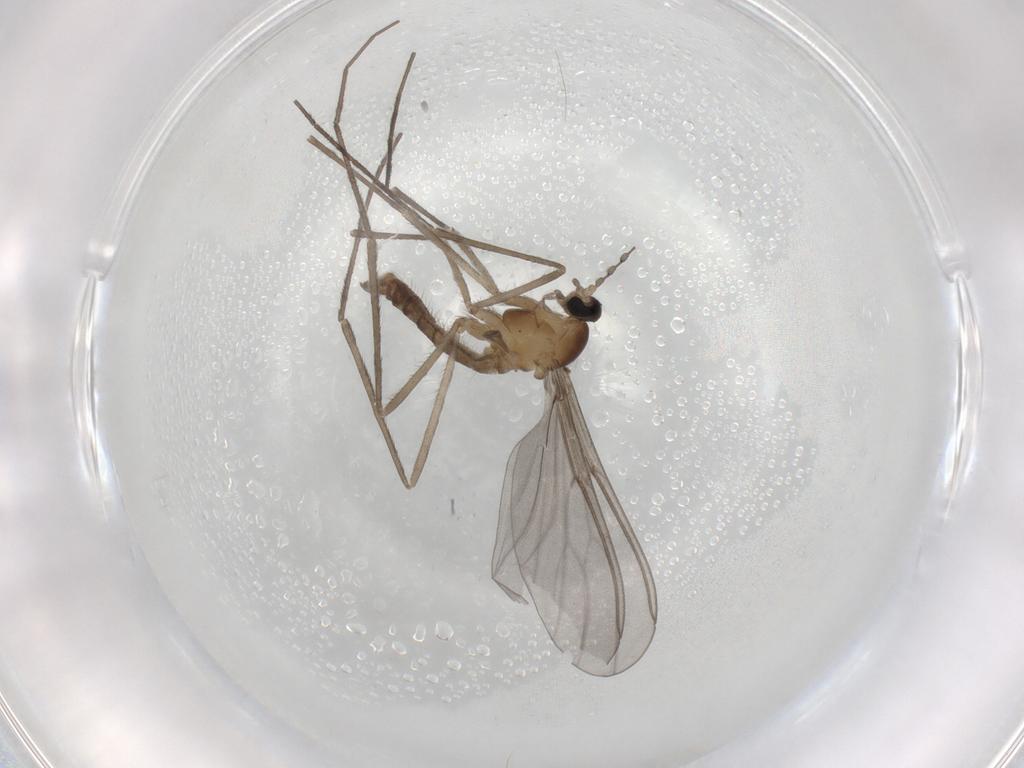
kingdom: Animalia
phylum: Arthropoda
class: Insecta
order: Diptera
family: Cecidomyiidae
